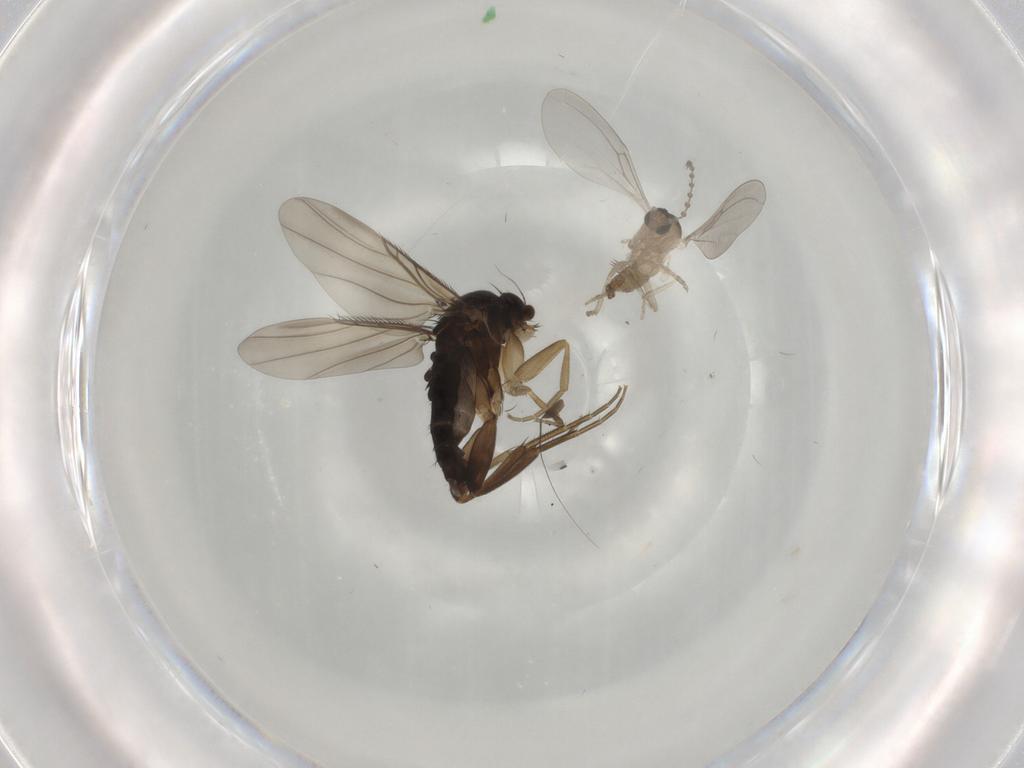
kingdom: Animalia
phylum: Arthropoda
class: Insecta
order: Diptera
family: Cecidomyiidae
